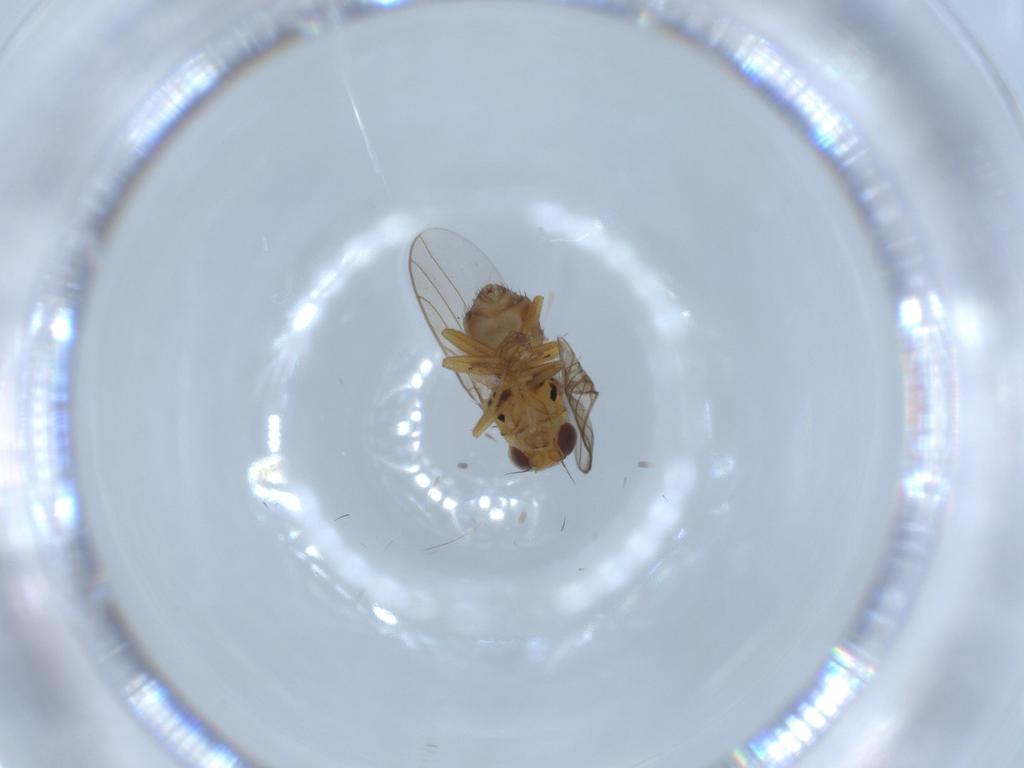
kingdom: Animalia
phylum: Arthropoda
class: Insecta
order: Diptera
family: Chloropidae
